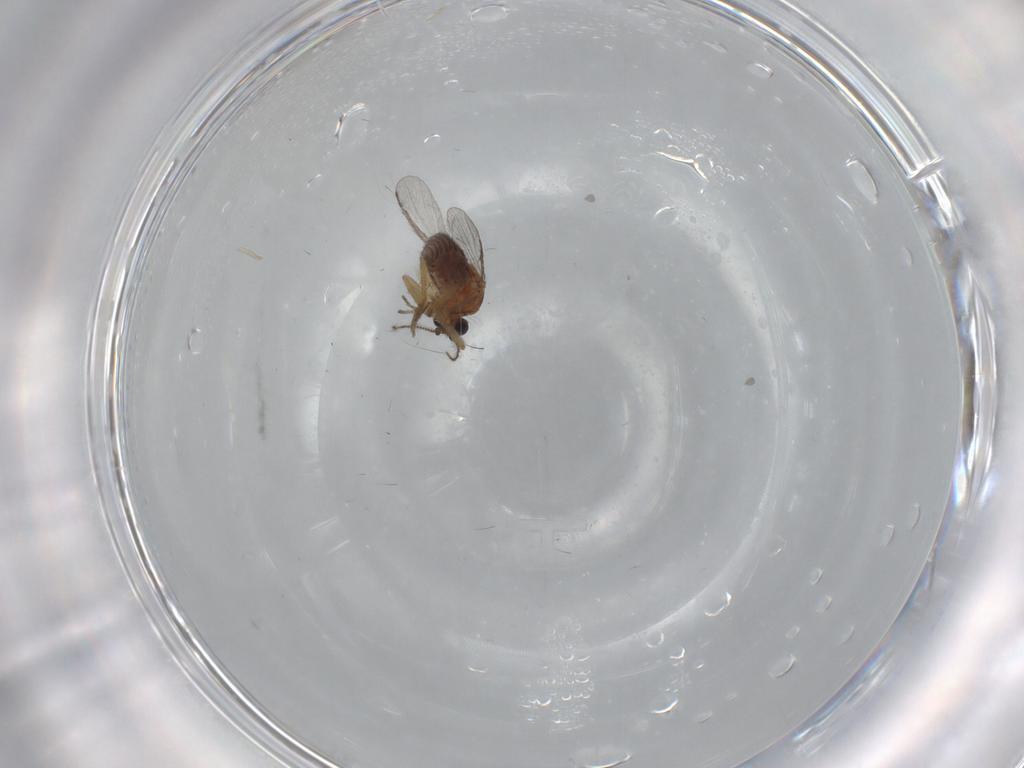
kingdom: Animalia
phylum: Arthropoda
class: Insecta
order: Diptera
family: Ceratopogonidae
